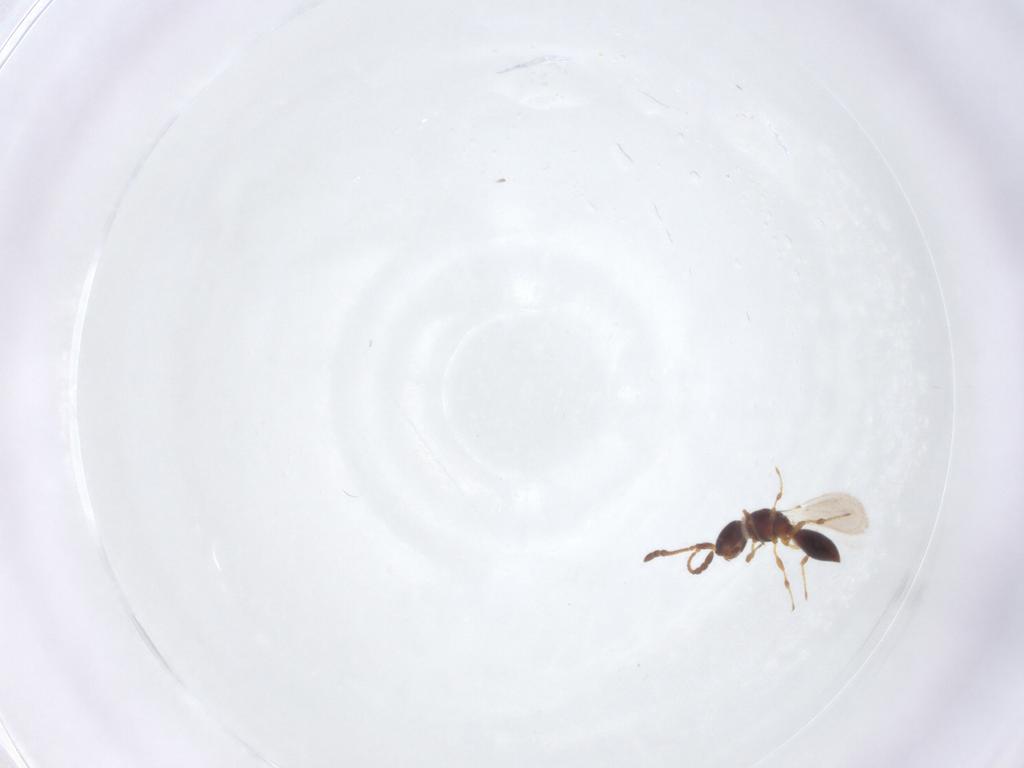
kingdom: Animalia
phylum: Arthropoda
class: Insecta
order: Hymenoptera
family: Diapriidae
